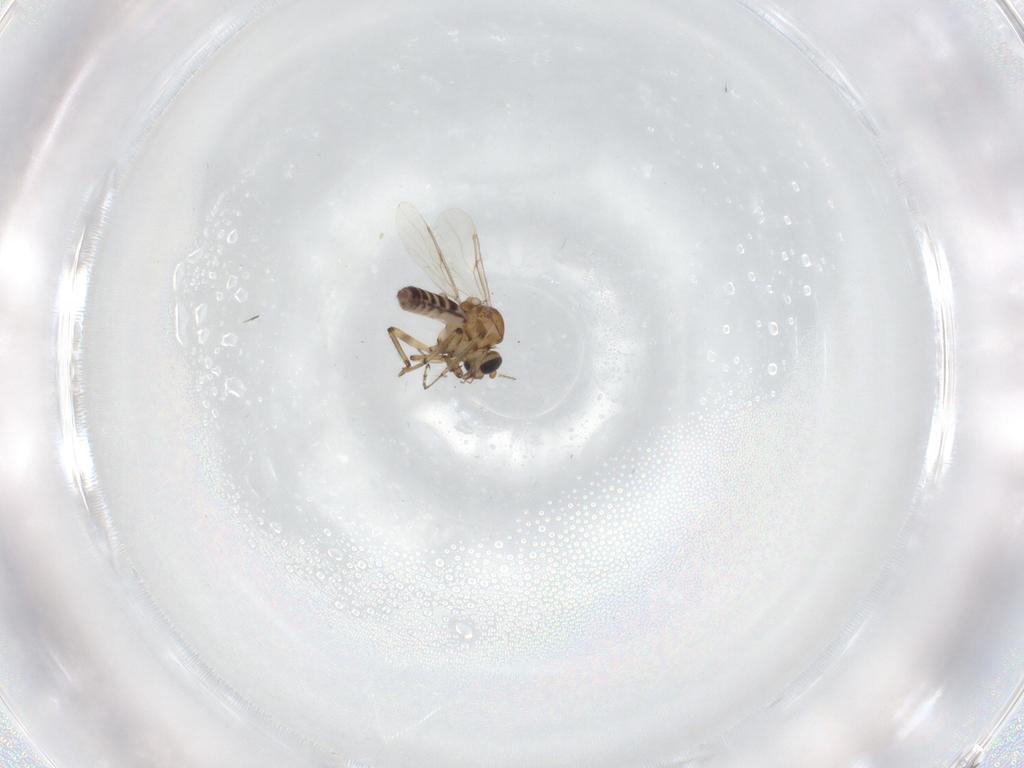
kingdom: Animalia
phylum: Arthropoda
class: Insecta
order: Diptera
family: Ceratopogonidae
